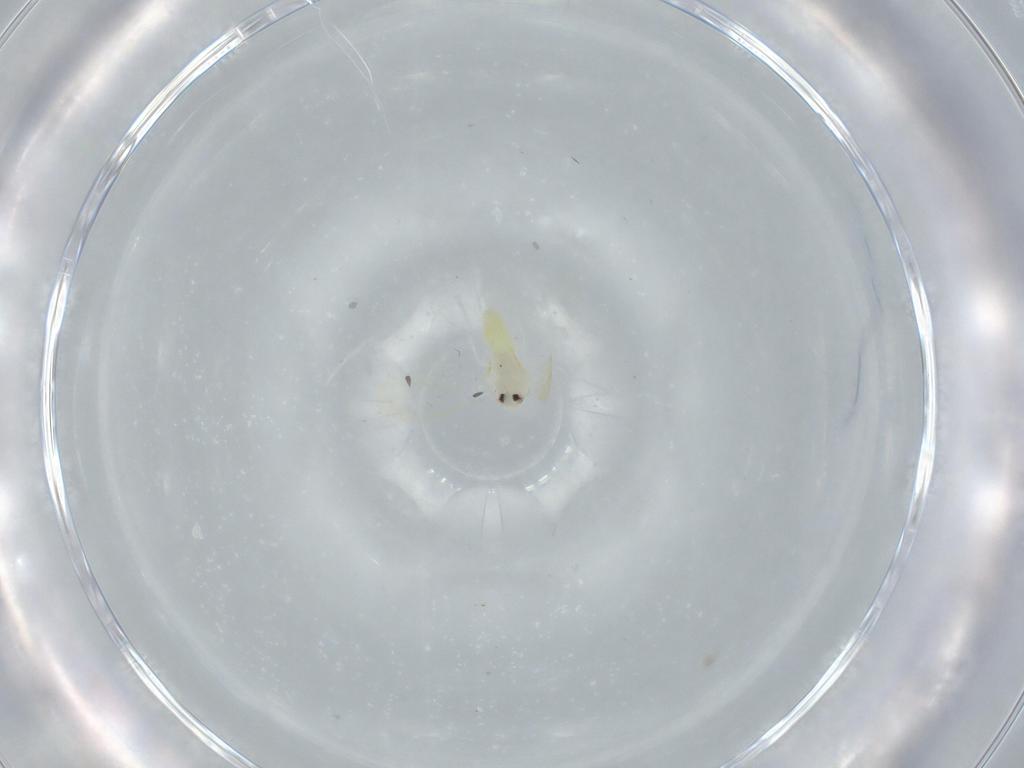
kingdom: Animalia
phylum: Arthropoda
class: Insecta
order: Hemiptera
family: Aleyrodidae
